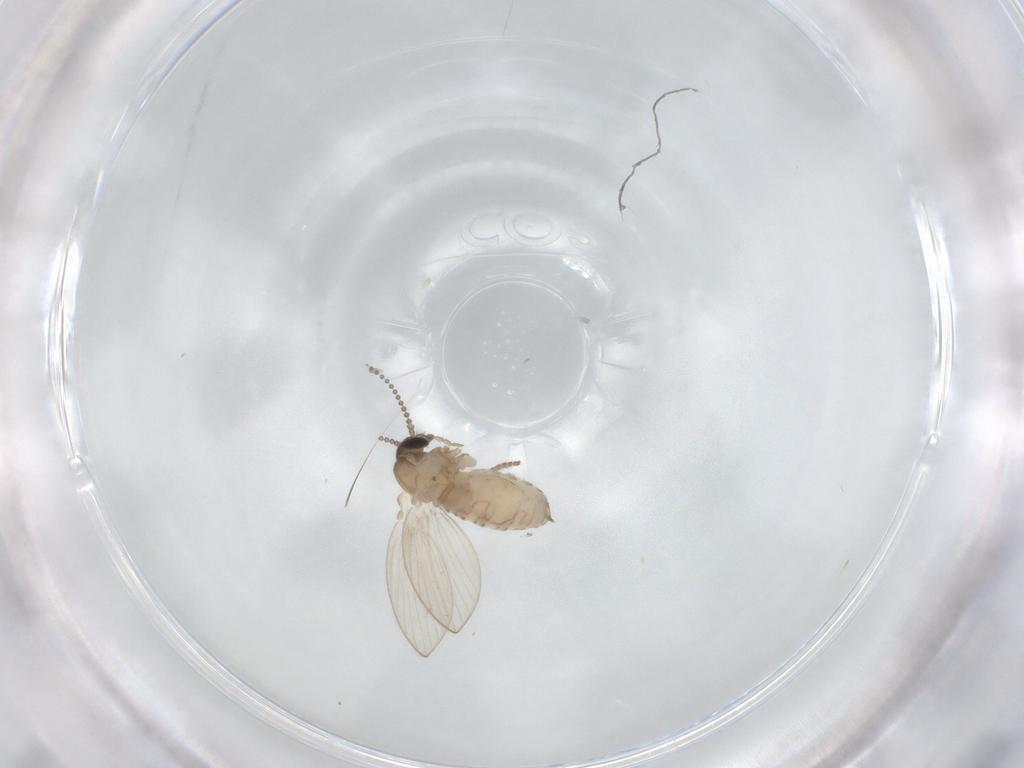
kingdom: Animalia
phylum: Arthropoda
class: Insecta
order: Diptera
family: Psychodidae
